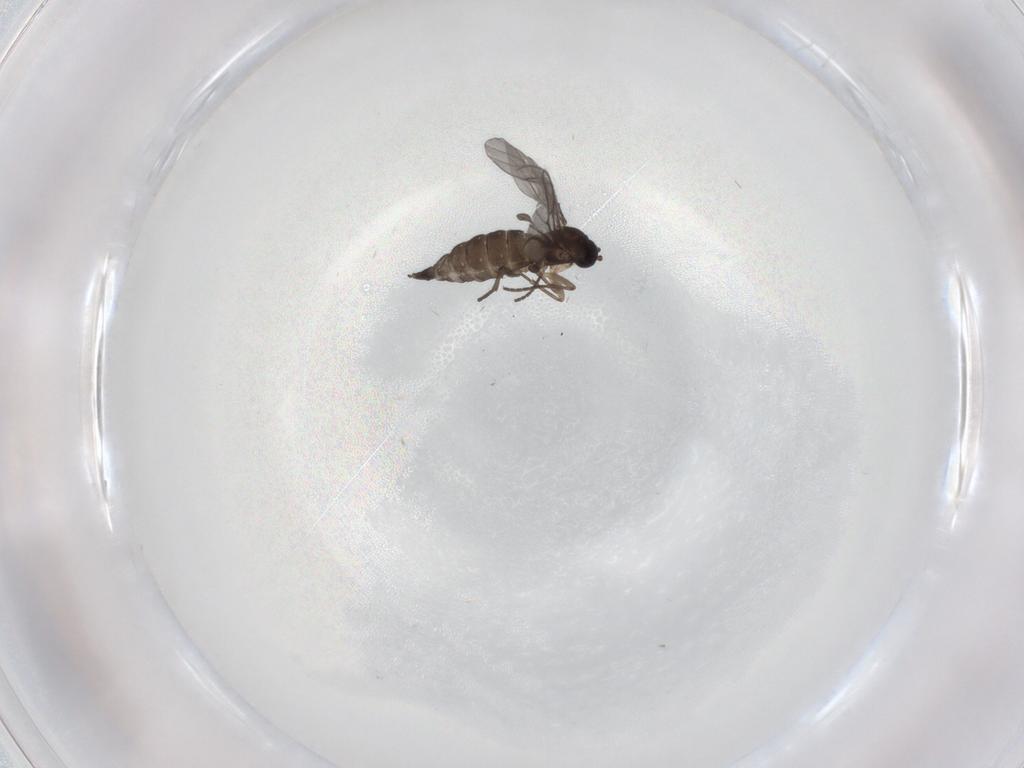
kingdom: Animalia
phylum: Arthropoda
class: Insecta
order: Diptera
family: Sciaridae
